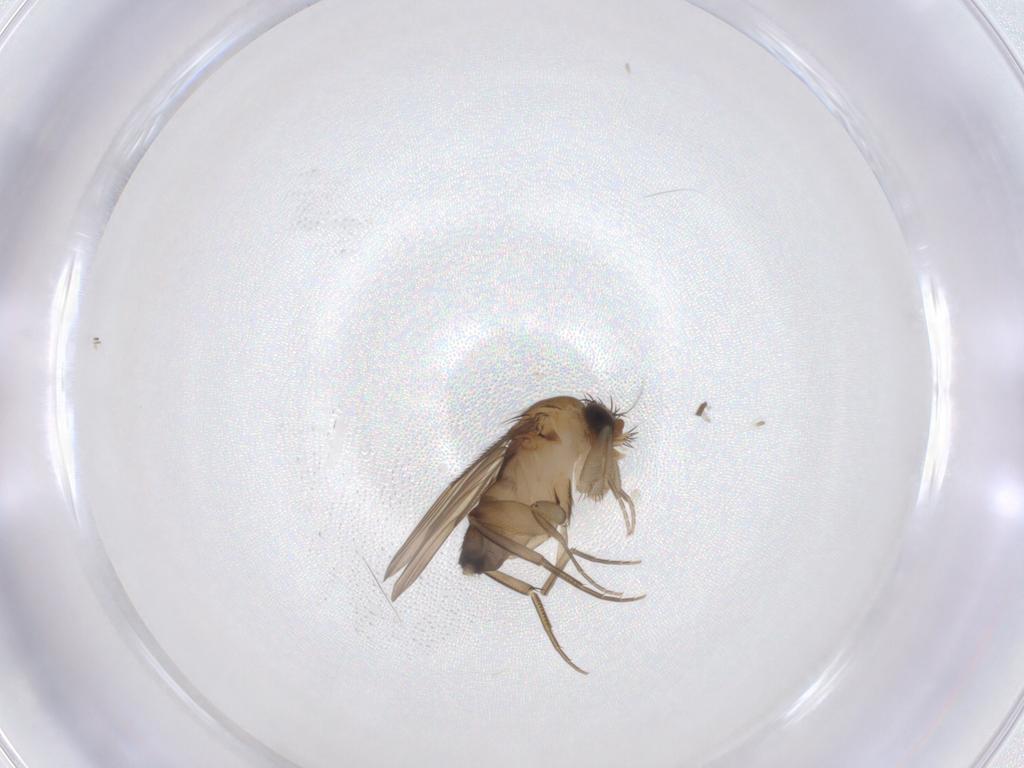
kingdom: Animalia
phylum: Arthropoda
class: Insecta
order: Diptera
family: Phoridae
